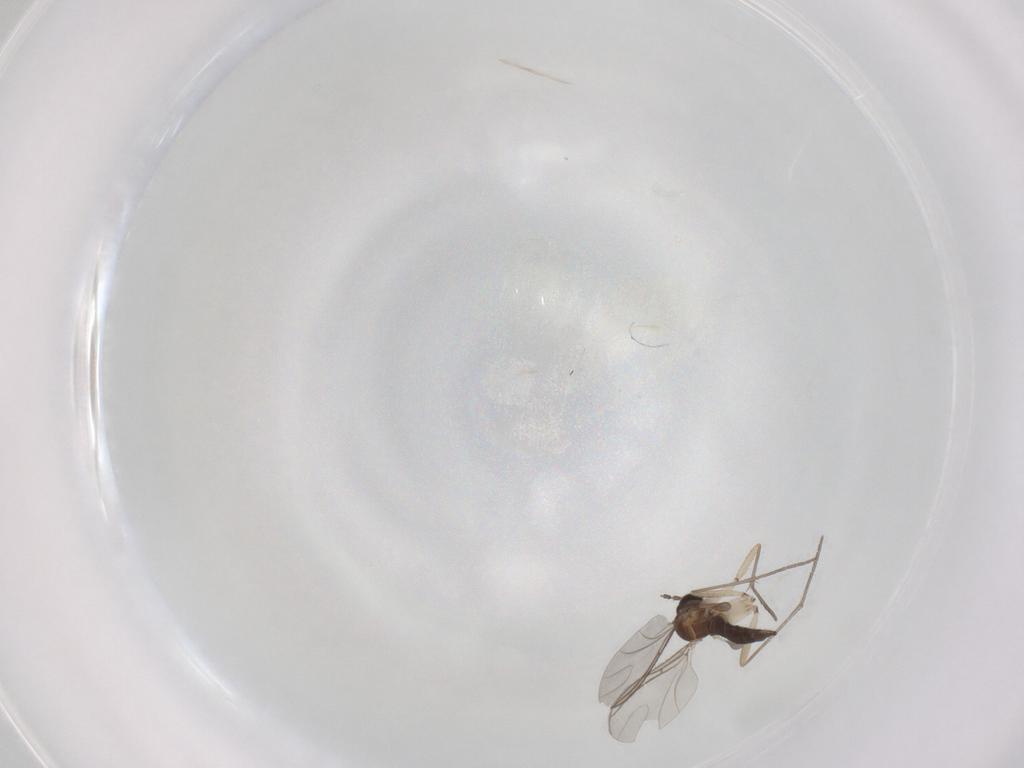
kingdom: Animalia
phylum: Arthropoda
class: Insecta
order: Diptera
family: Sciaridae
